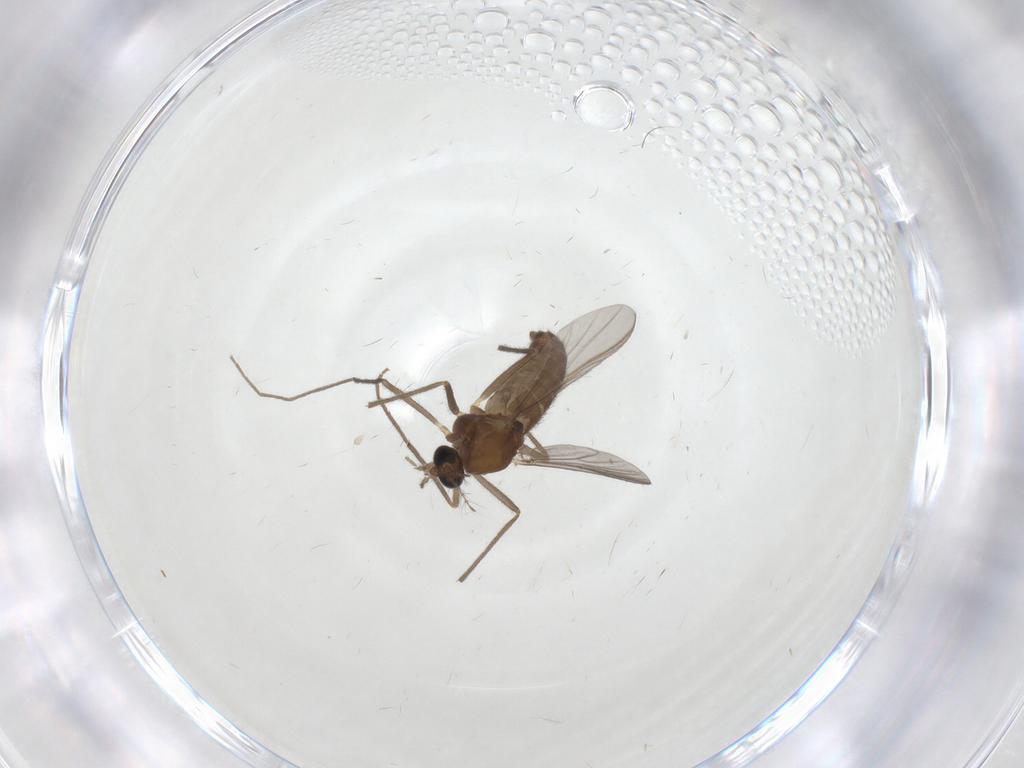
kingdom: Animalia
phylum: Arthropoda
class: Insecta
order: Diptera
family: Chironomidae
